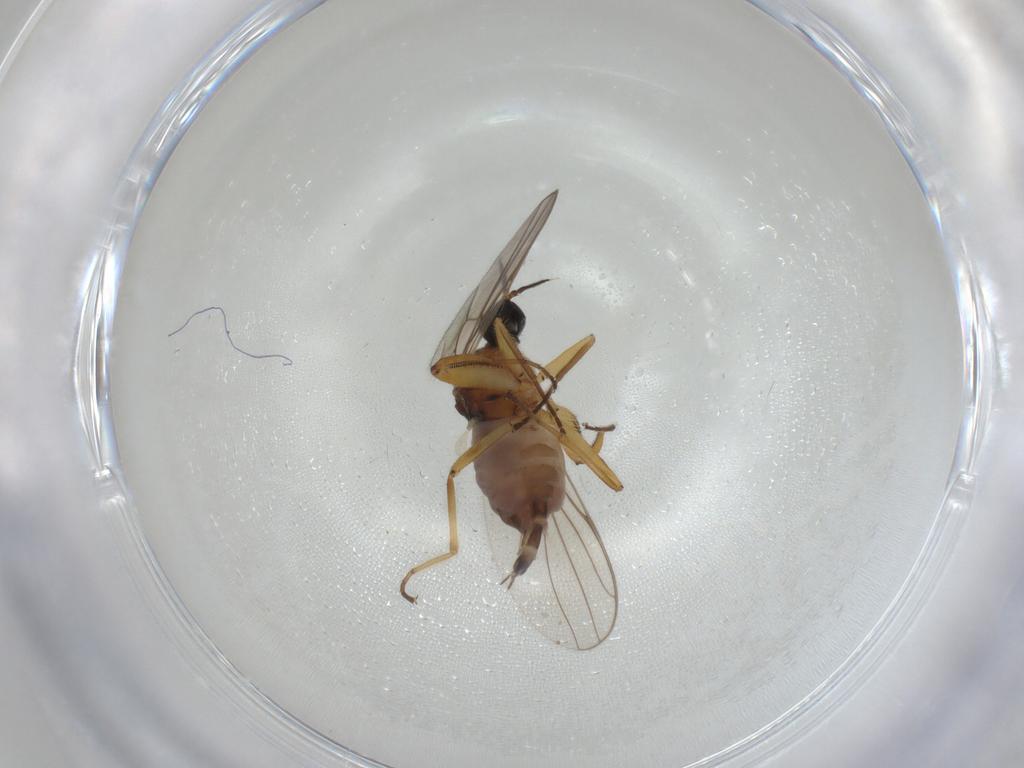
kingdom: Animalia
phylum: Arthropoda
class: Insecta
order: Diptera
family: Hybotidae
